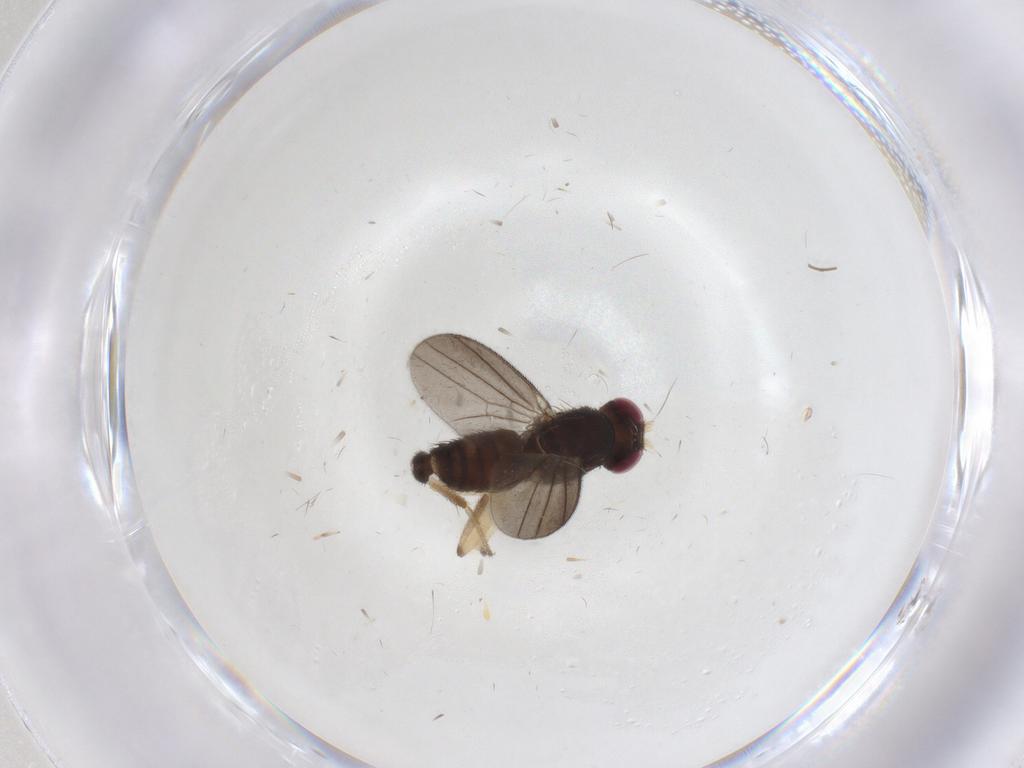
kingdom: Animalia
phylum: Arthropoda
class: Insecta
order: Diptera
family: Clusiidae
